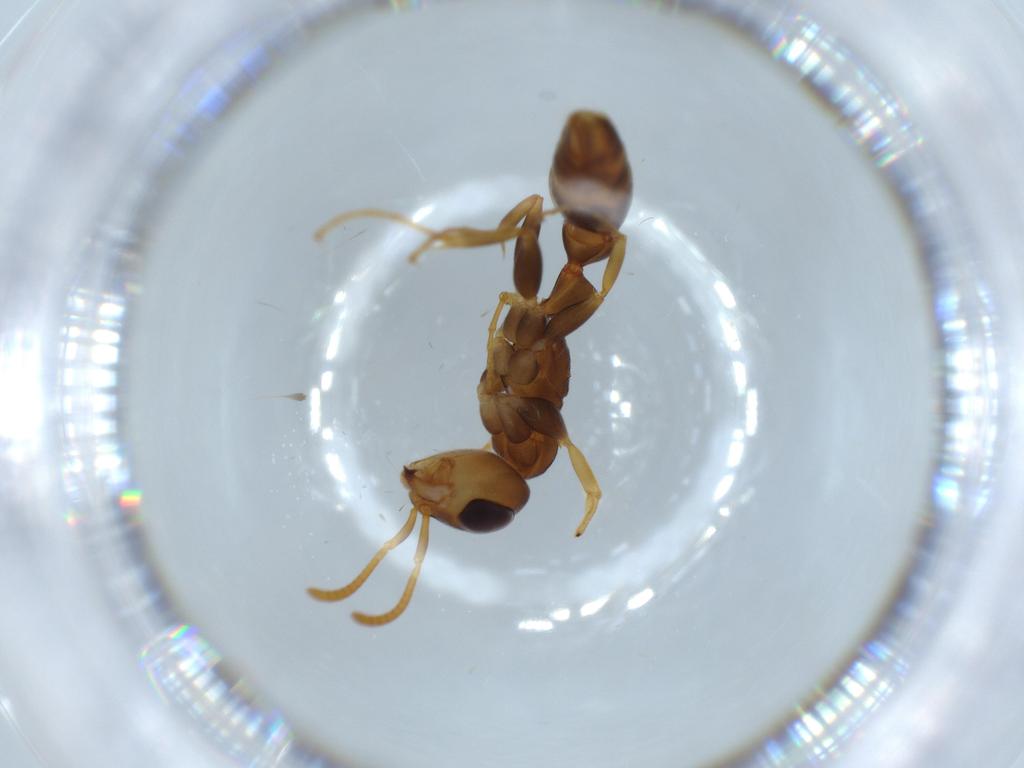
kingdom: Animalia
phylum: Arthropoda
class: Insecta
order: Hymenoptera
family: Formicidae
